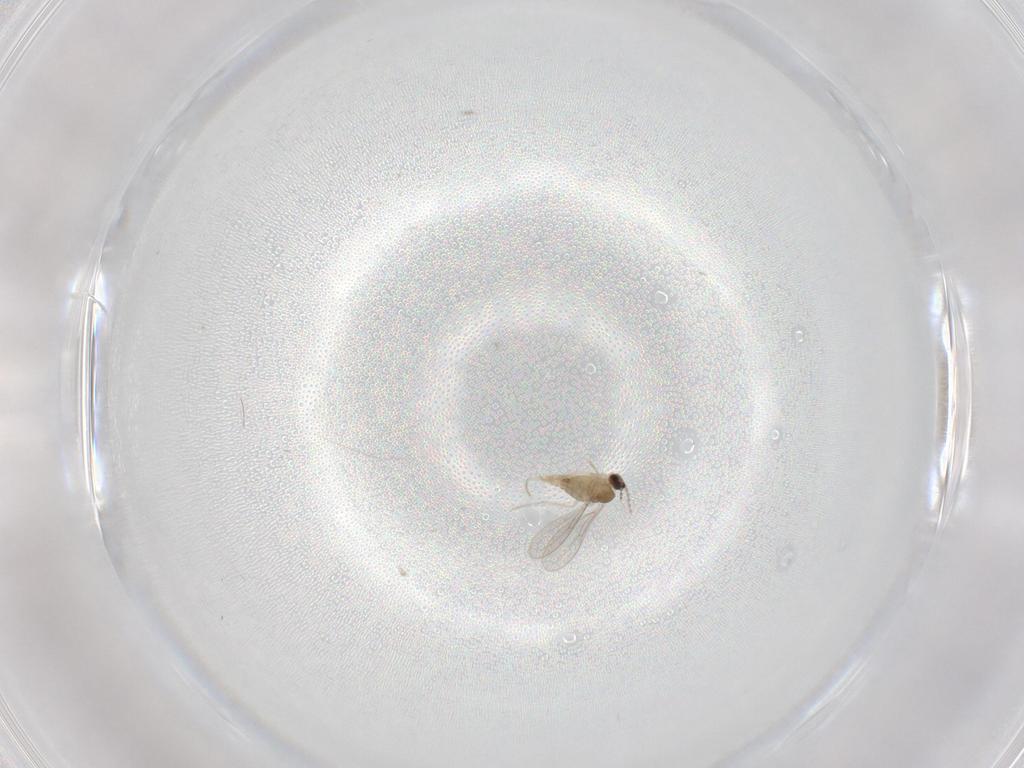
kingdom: Animalia
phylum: Arthropoda
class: Insecta
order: Diptera
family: Cecidomyiidae
